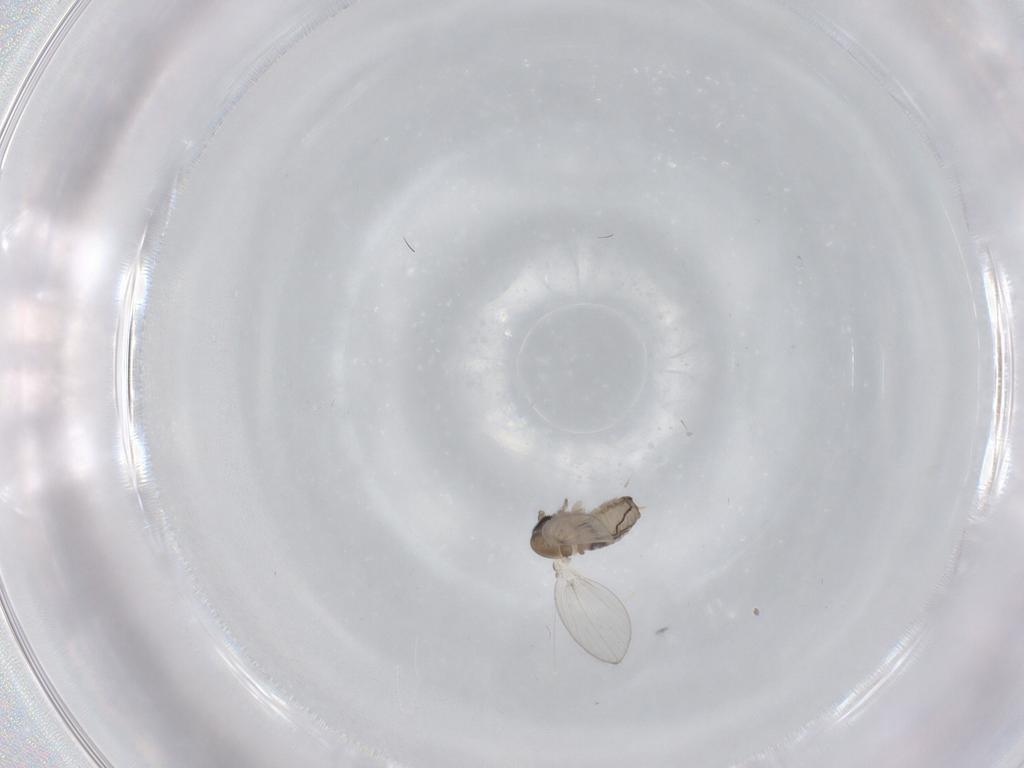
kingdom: Animalia
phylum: Arthropoda
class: Insecta
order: Diptera
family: Psychodidae
